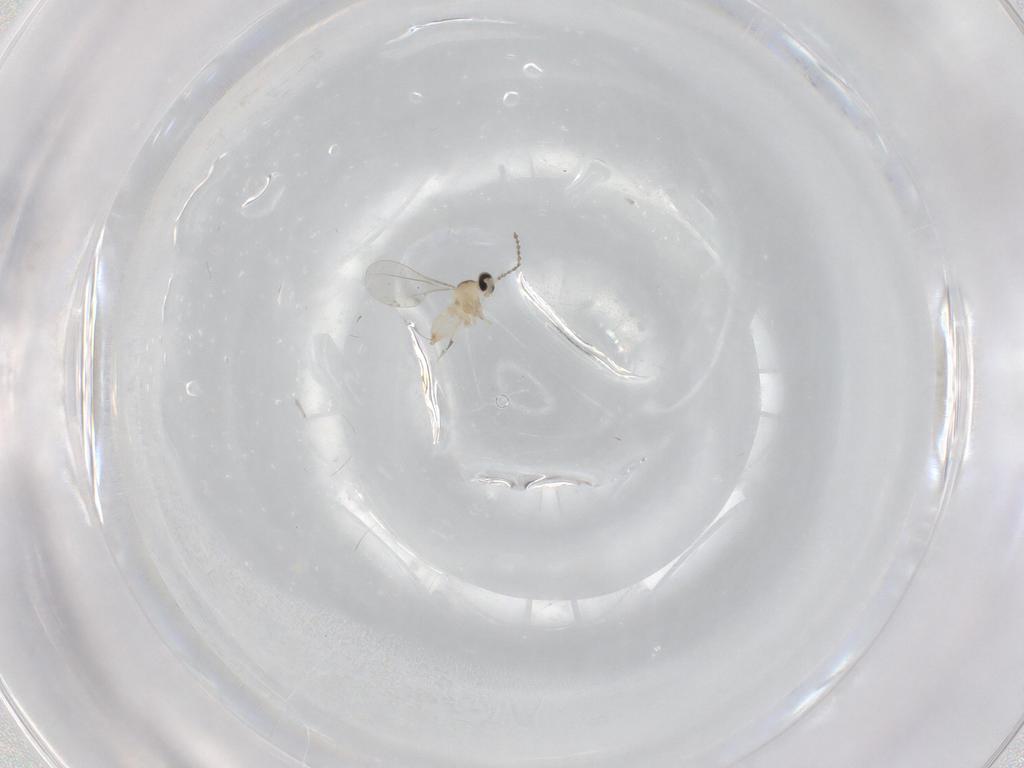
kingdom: Animalia
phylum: Arthropoda
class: Insecta
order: Diptera
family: Cecidomyiidae
